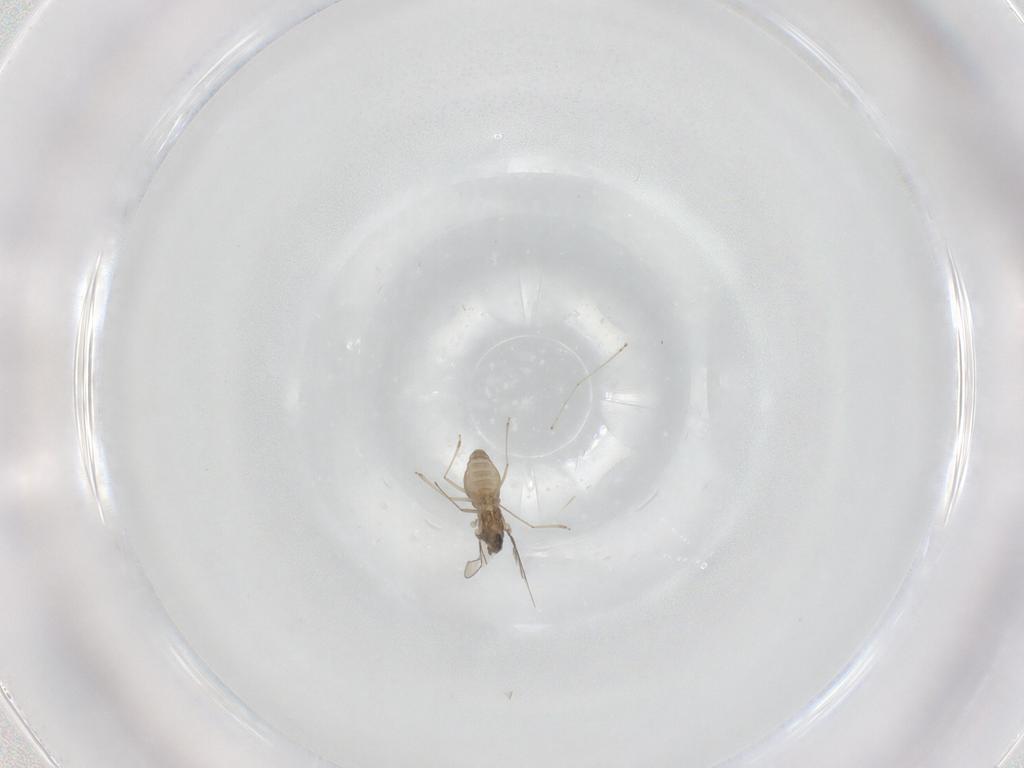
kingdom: Animalia
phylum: Arthropoda
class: Insecta
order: Diptera
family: Cecidomyiidae
